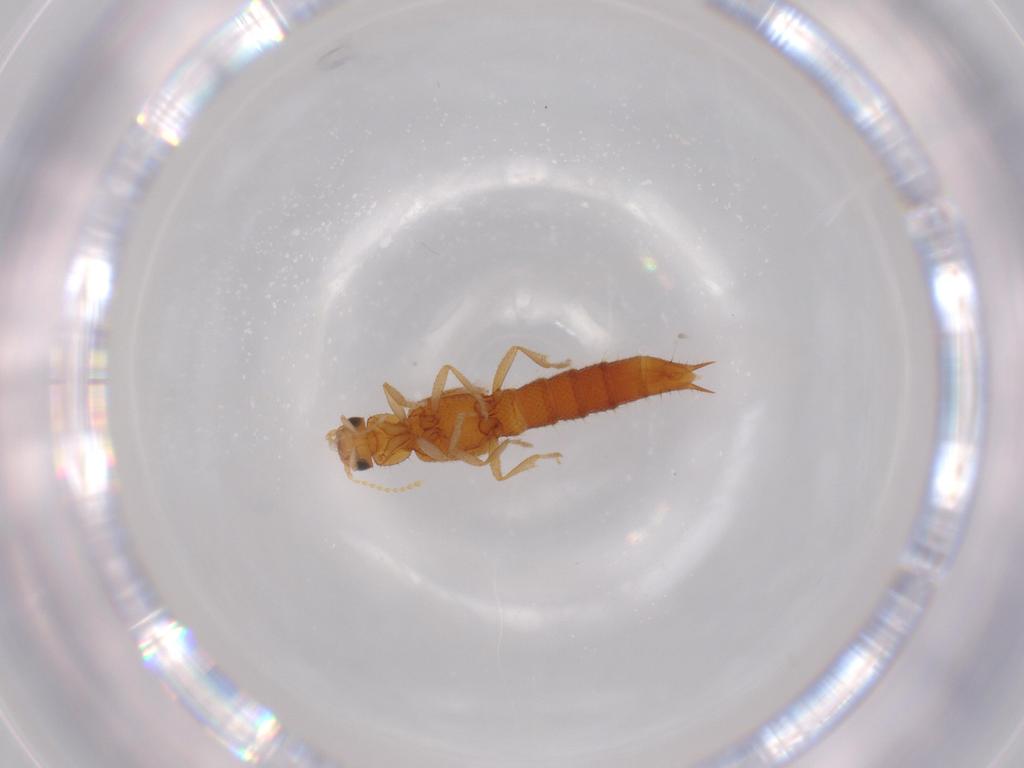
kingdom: Animalia
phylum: Arthropoda
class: Insecta
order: Coleoptera
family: Staphylinidae
